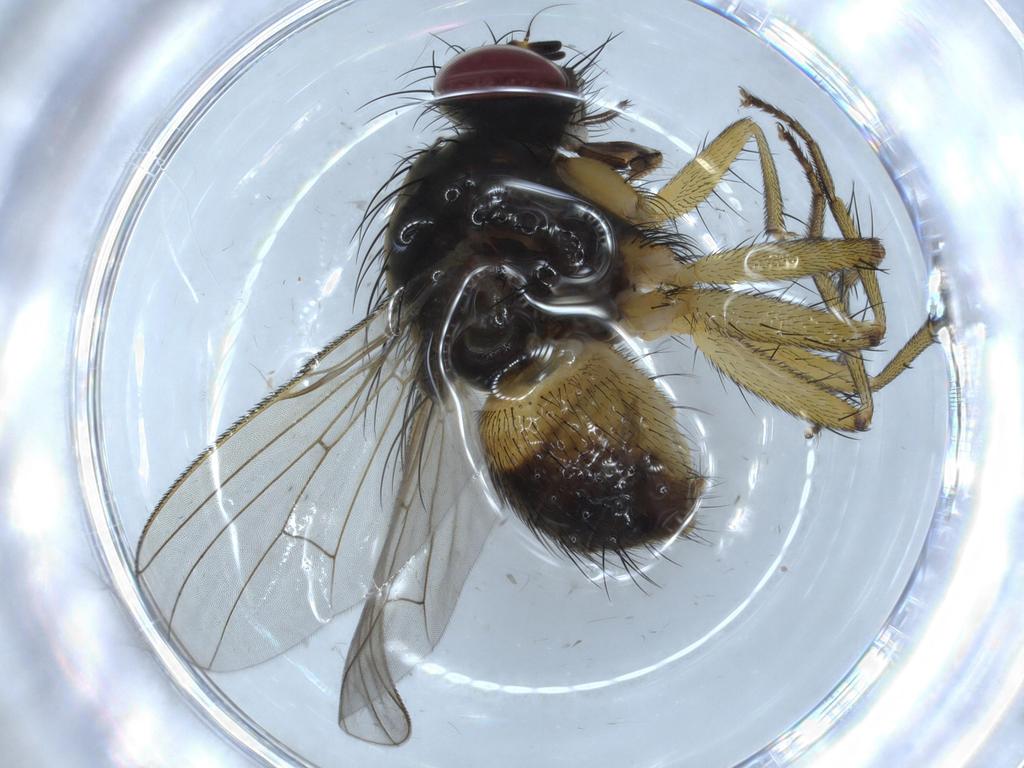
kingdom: Animalia
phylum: Arthropoda
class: Insecta
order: Diptera
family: Muscidae
